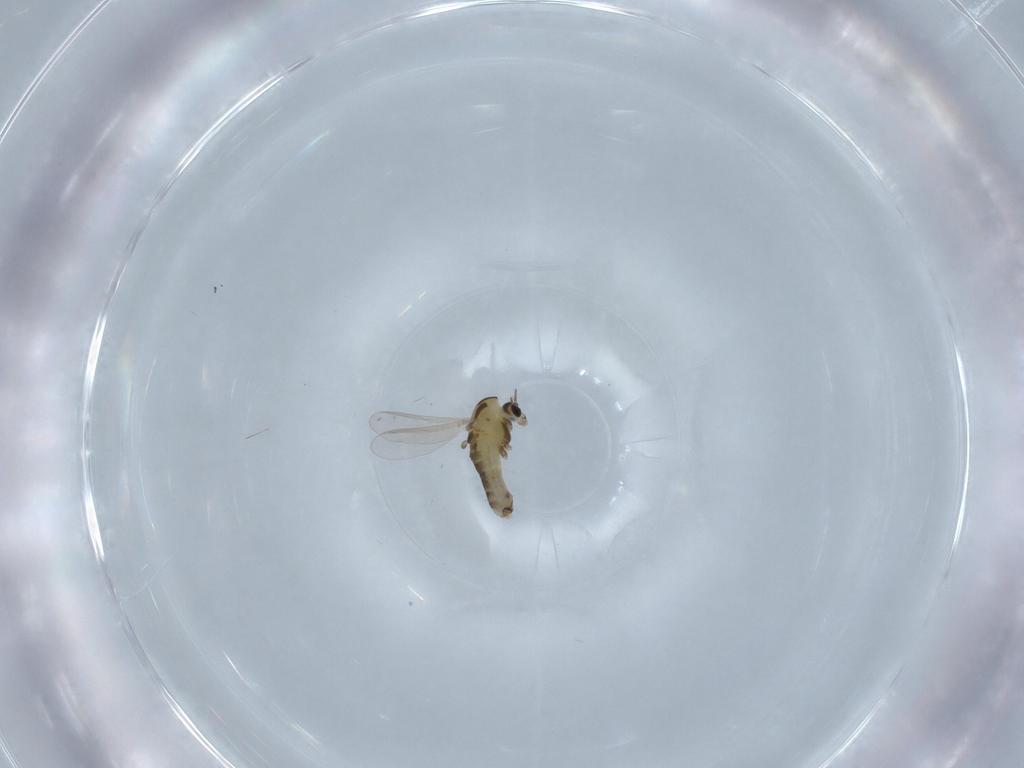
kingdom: Animalia
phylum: Arthropoda
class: Insecta
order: Diptera
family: Chironomidae
